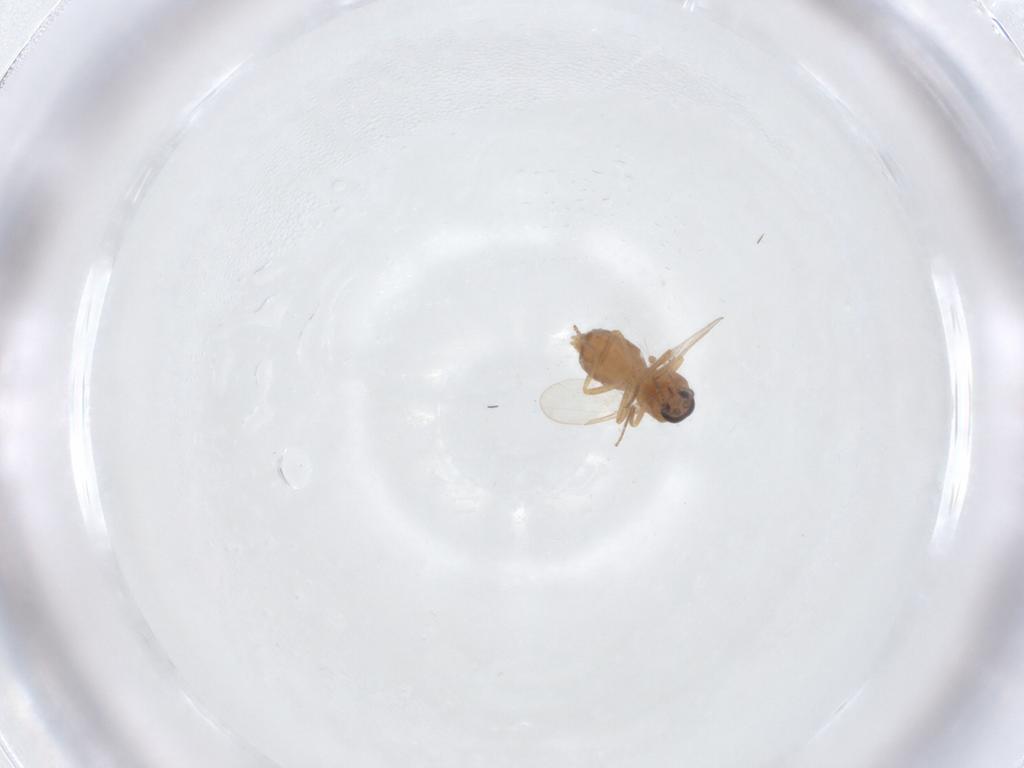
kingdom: Animalia
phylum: Arthropoda
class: Insecta
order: Diptera
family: Ceratopogonidae
